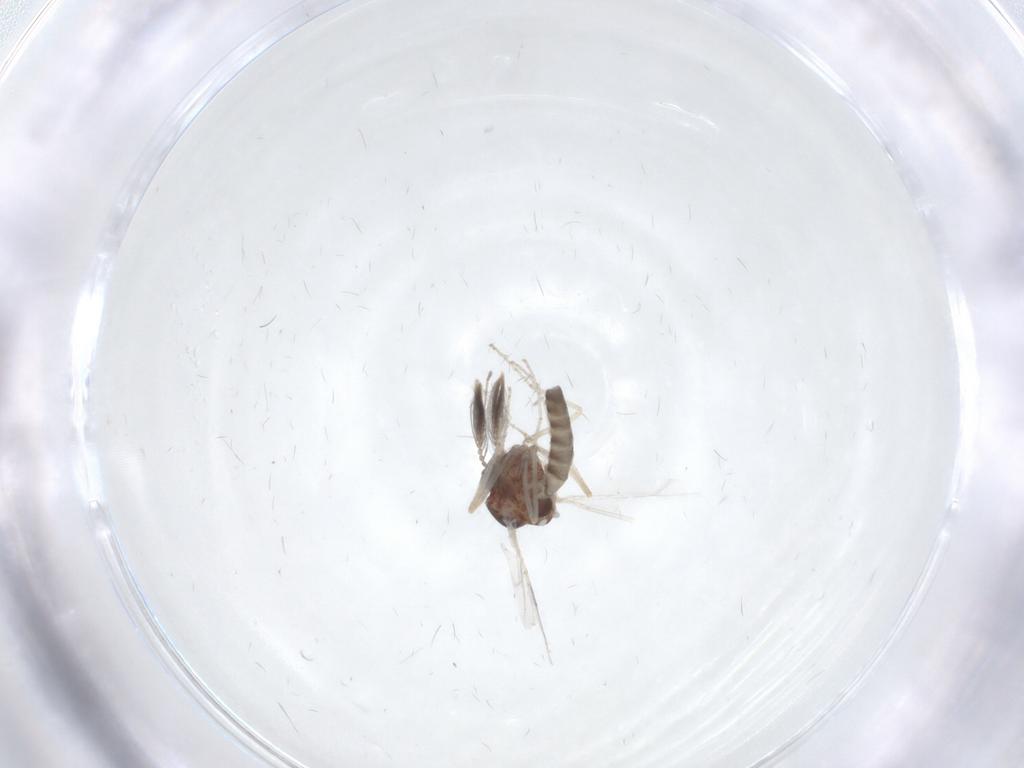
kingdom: Animalia
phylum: Arthropoda
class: Insecta
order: Diptera
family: Ceratopogonidae
